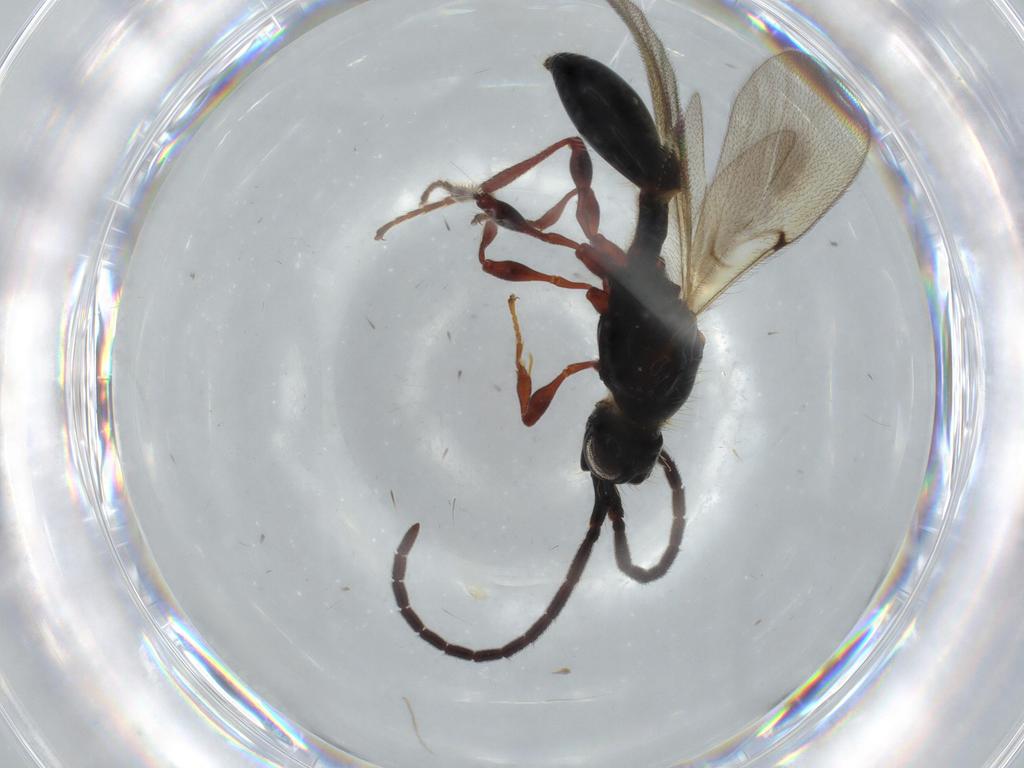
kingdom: Animalia
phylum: Arthropoda
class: Insecta
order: Hymenoptera
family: Diapriidae
